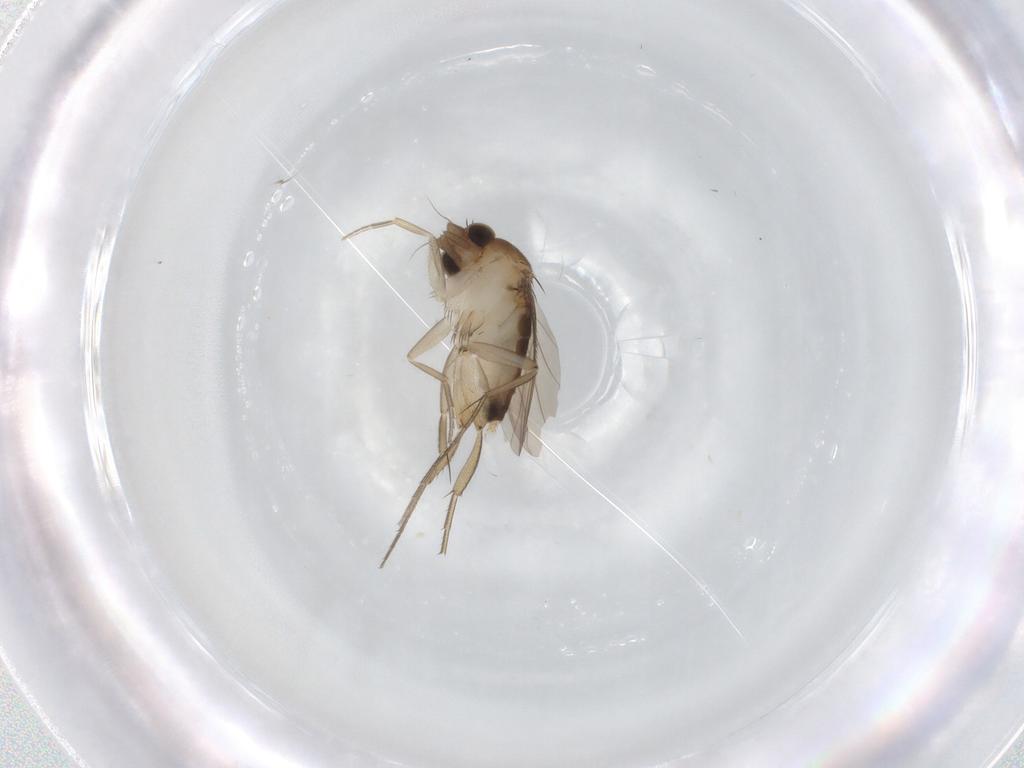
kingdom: Animalia
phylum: Arthropoda
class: Insecta
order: Diptera
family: Phoridae
